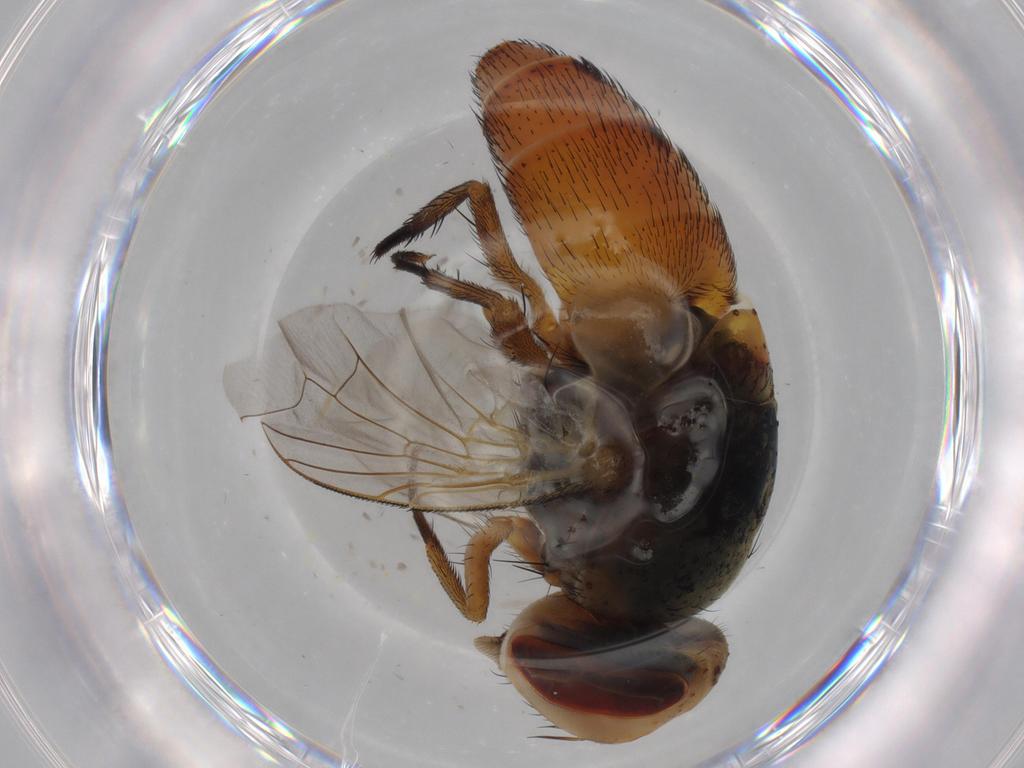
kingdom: Animalia
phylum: Arthropoda
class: Insecta
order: Diptera
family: Sarcophagidae
